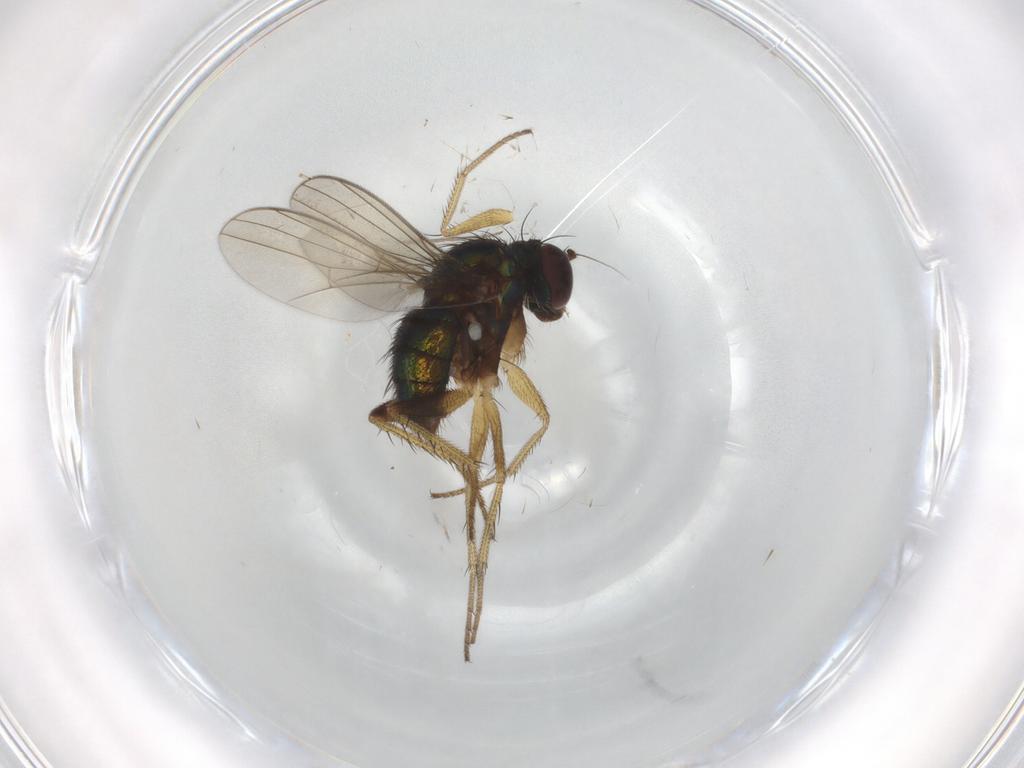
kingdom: Animalia
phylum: Arthropoda
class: Insecta
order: Diptera
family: Dolichopodidae
